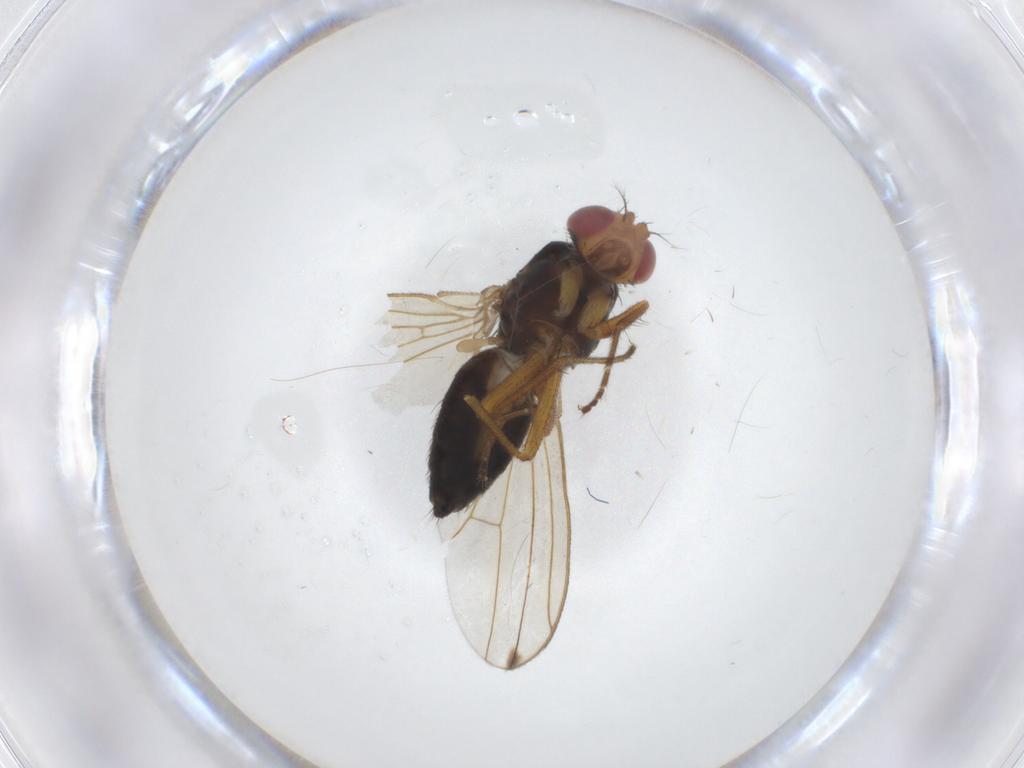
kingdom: Animalia
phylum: Arthropoda
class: Insecta
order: Diptera
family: Drosophilidae
